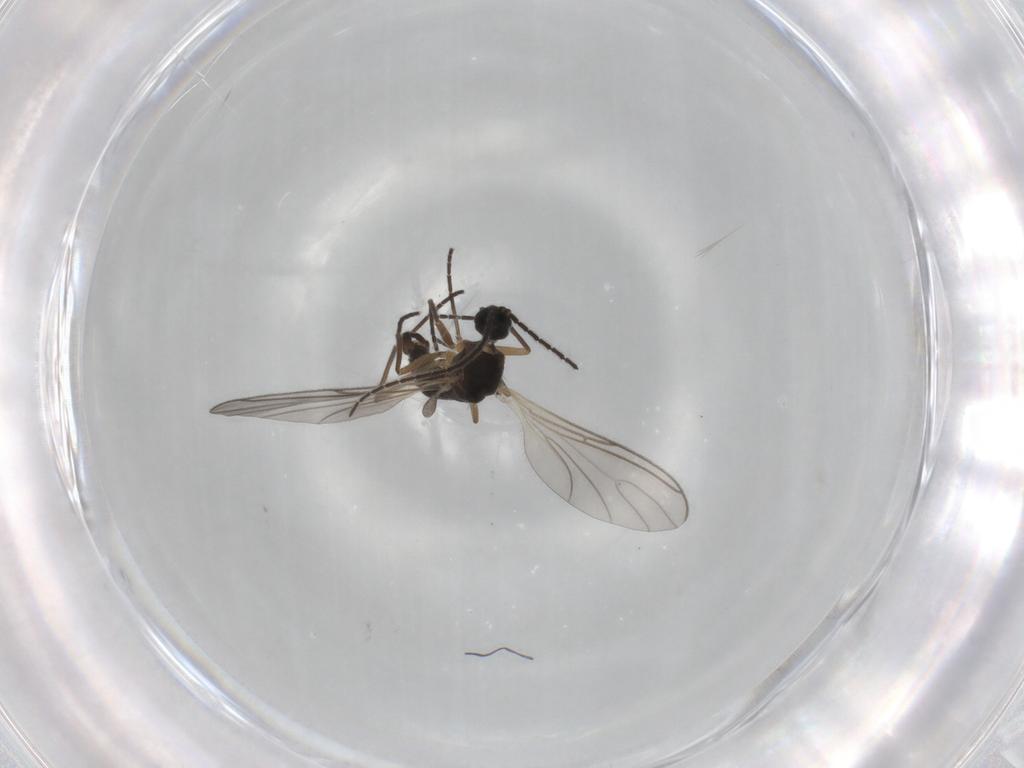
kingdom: Animalia
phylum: Arthropoda
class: Insecta
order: Diptera
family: Sciaridae
